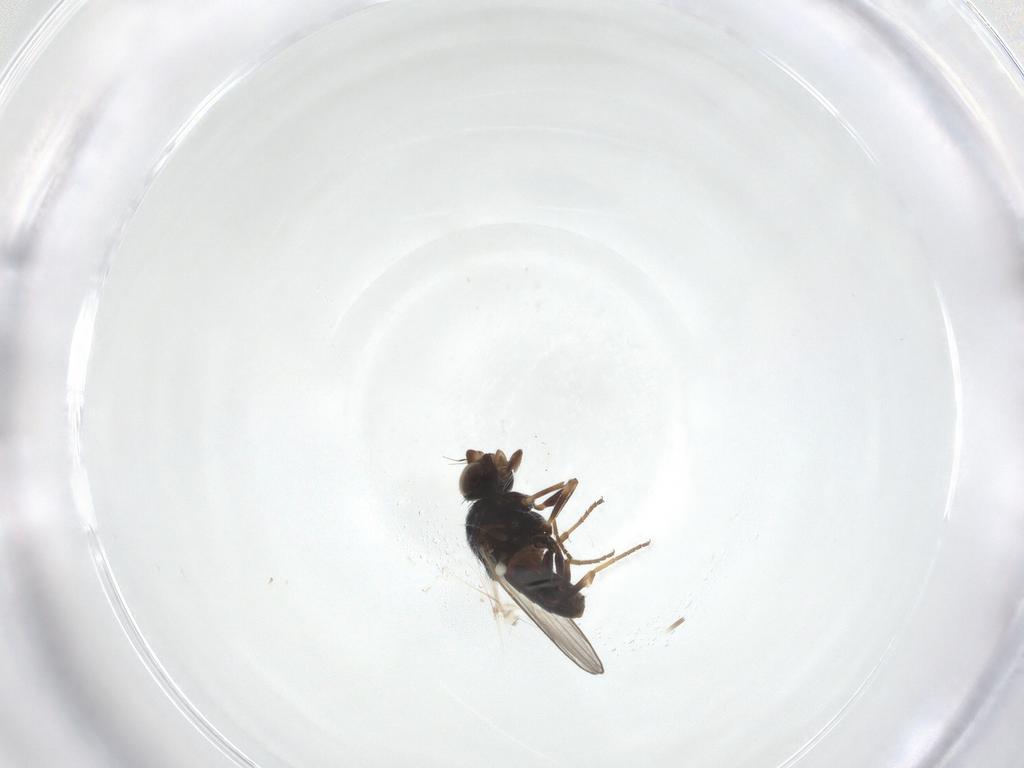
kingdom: Animalia
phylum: Arthropoda
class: Insecta
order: Diptera
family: Chloropidae
